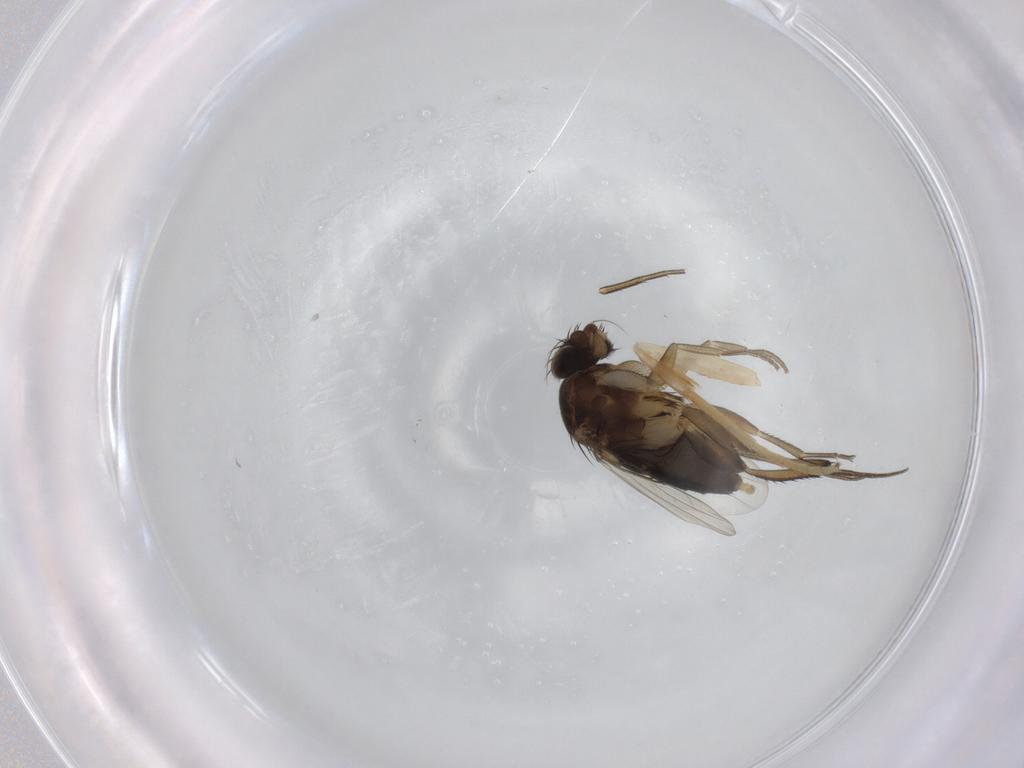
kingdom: Animalia
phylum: Arthropoda
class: Insecta
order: Diptera
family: Phoridae
